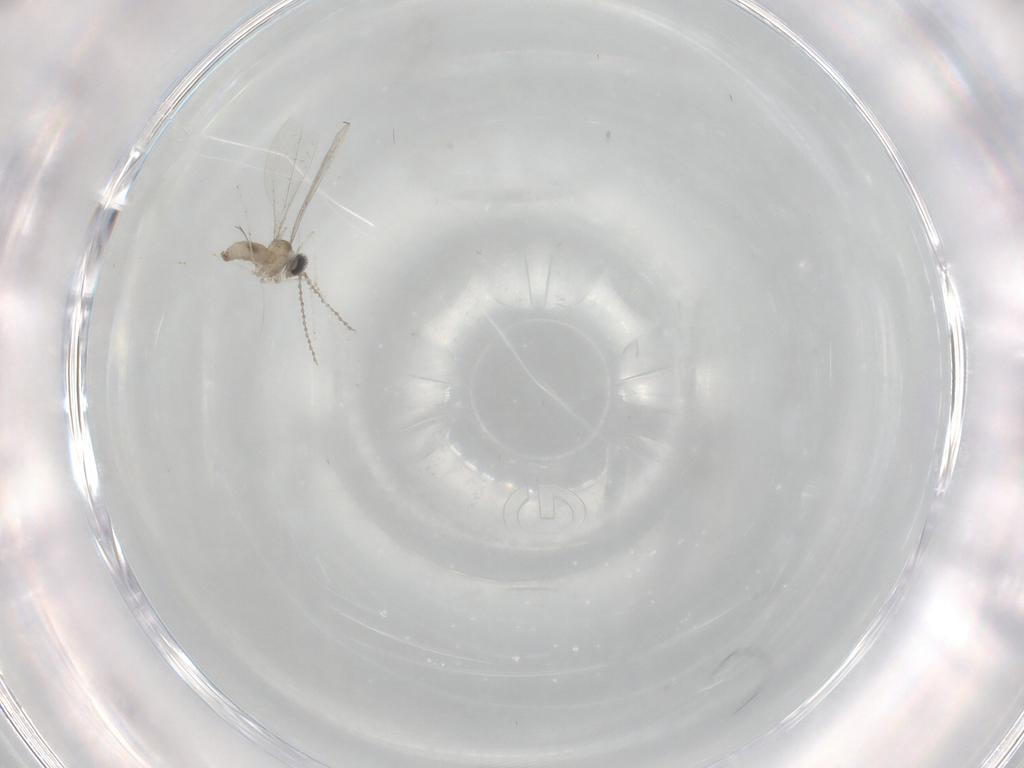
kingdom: Animalia
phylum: Arthropoda
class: Insecta
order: Diptera
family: Cecidomyiidae
